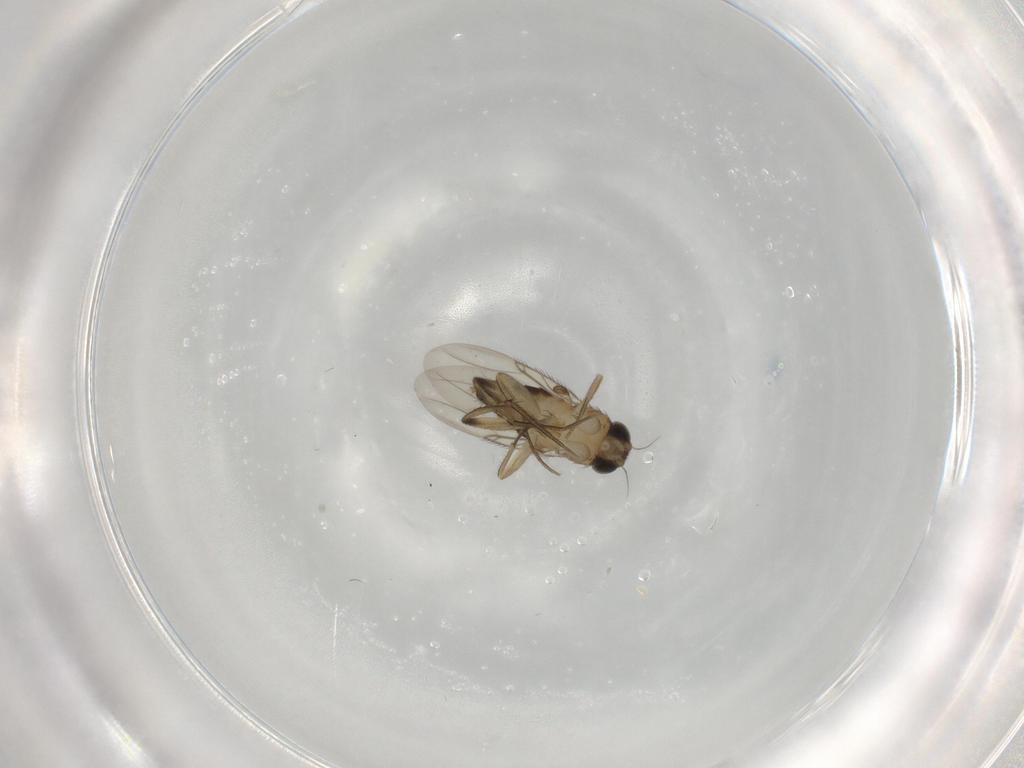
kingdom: Animalia
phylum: Arthropoda
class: Insecta
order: Diptera
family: Phoridae
